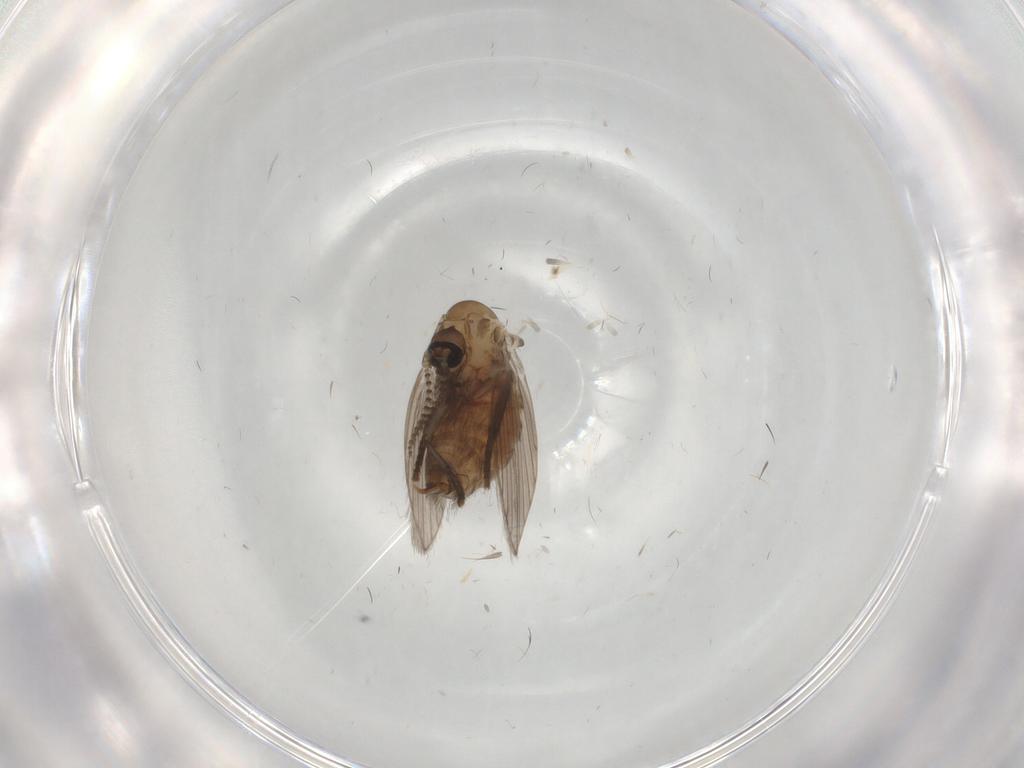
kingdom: Animalia
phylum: Arthropoda
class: Insecta
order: Diptera
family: Psychodidae
